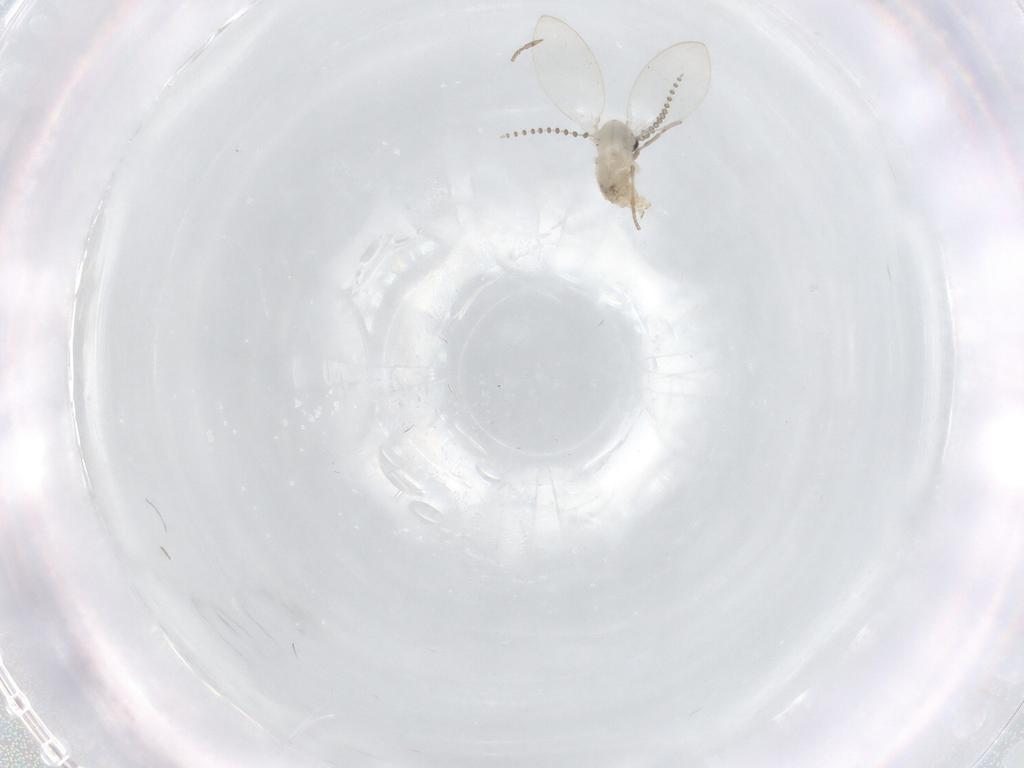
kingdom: Animalia
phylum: Arthropoda
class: Insecta
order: Diptera
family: Psychodidae
